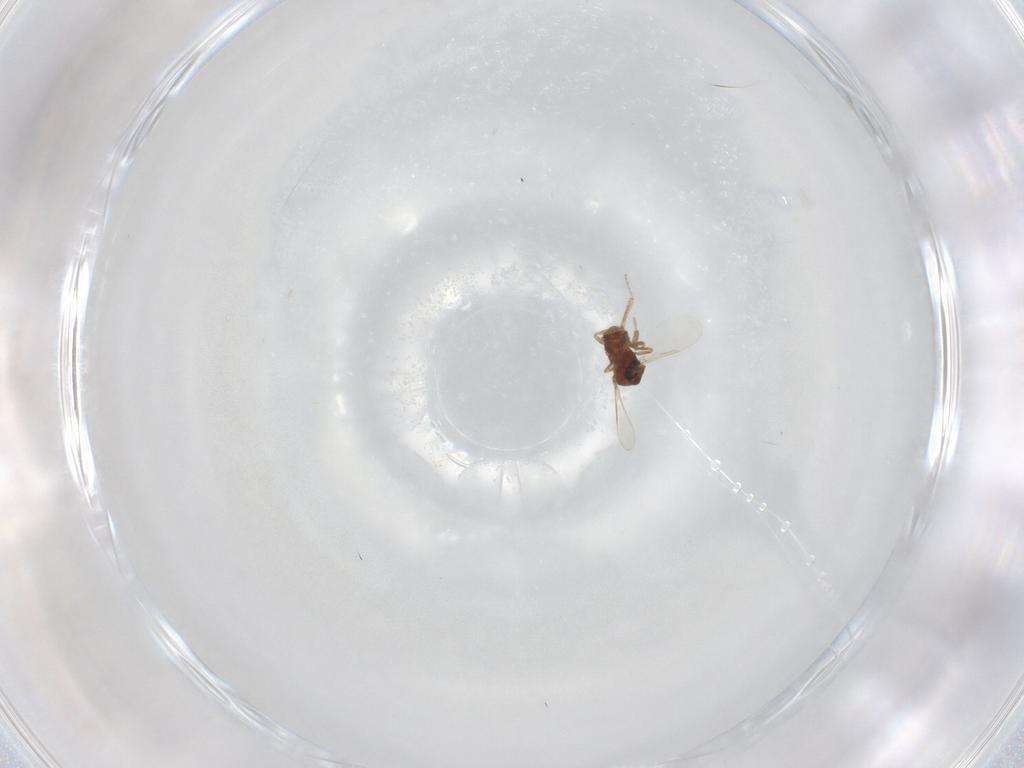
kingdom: Animalia
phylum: Arthropoda
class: Insecta
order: Diptera
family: Ceratopogonidae
